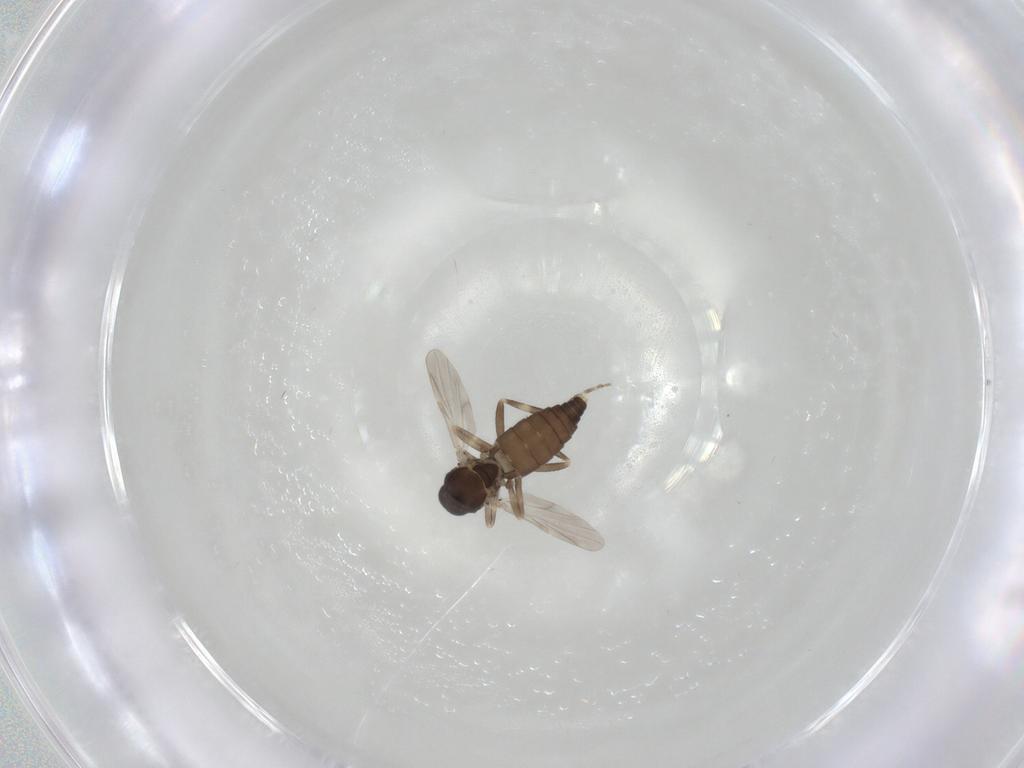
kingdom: Animalia
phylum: Arthropoda
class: Insecta
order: Diptera
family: Ceratopogonidae
